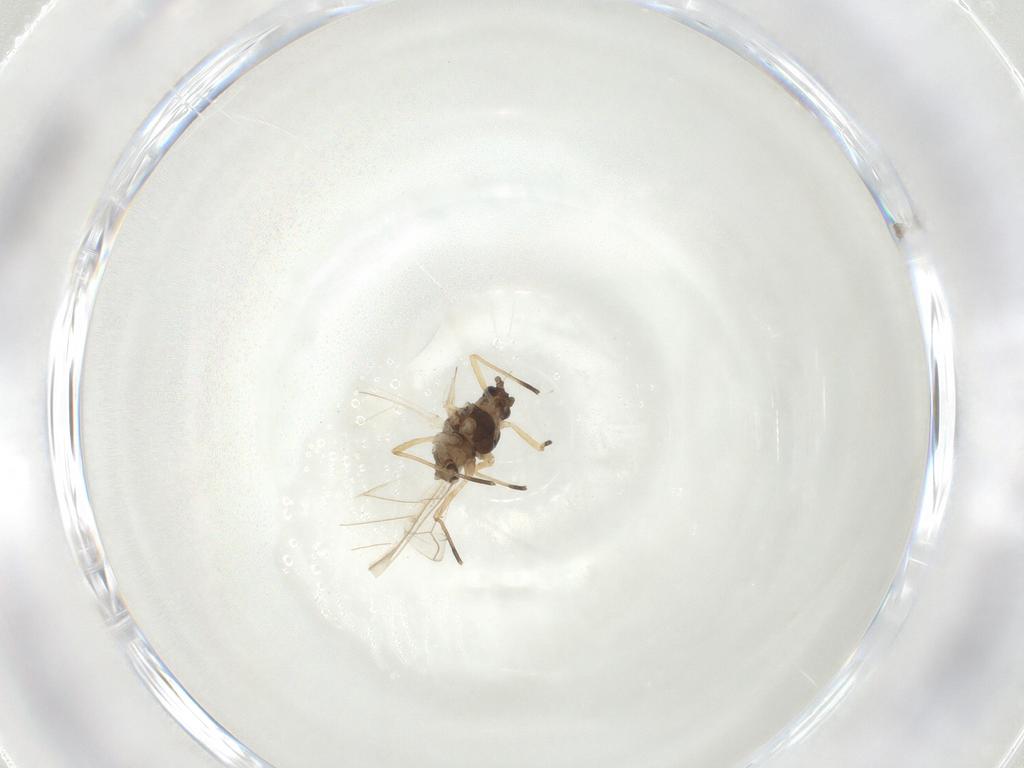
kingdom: Animalia
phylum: Arthropoda
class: Insecta
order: Hemiptera
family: Aphididae
